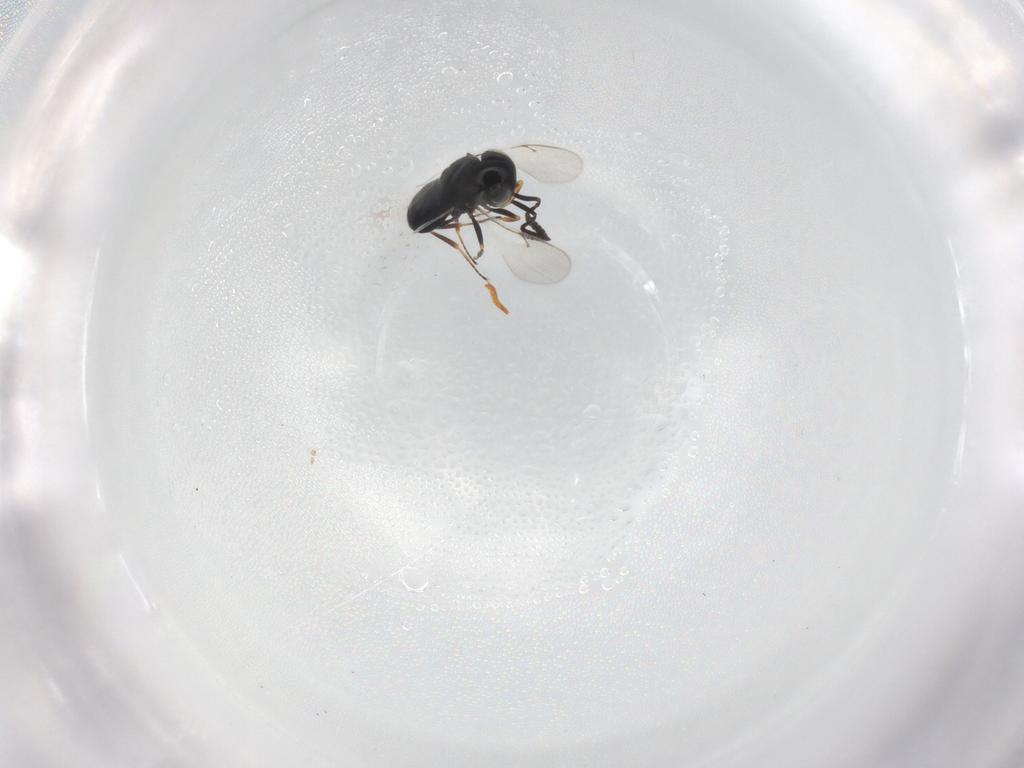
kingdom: Animalia
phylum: Arthropoda
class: Insecta
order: Hymenoptera
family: Scelionidae
